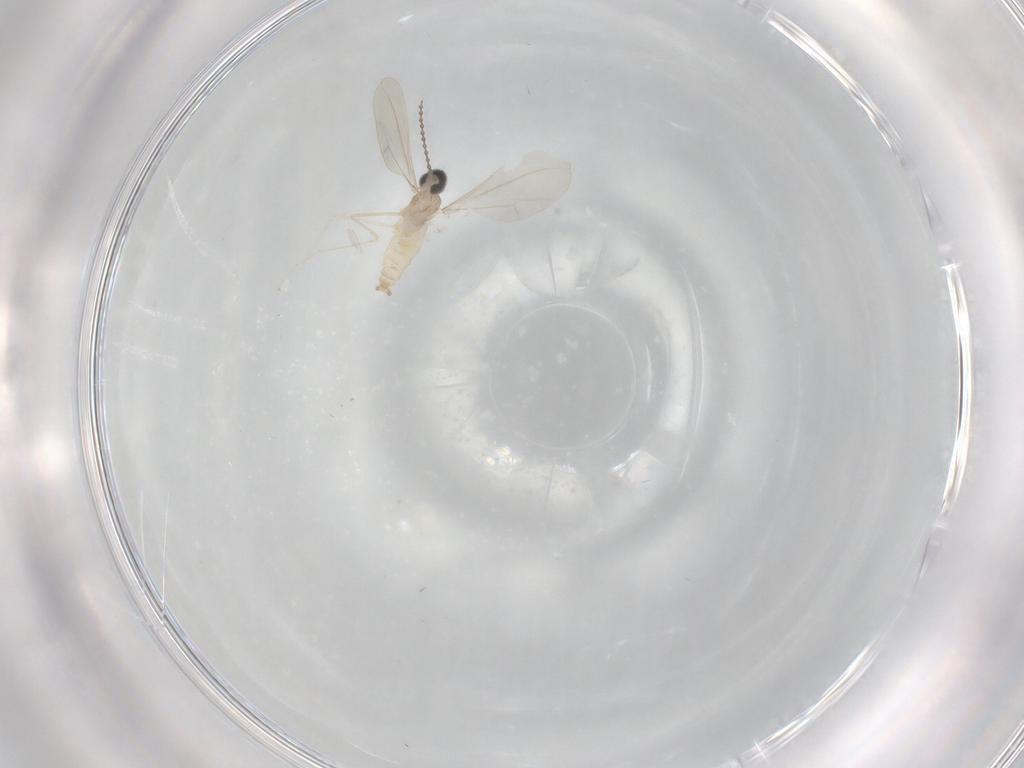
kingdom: Animalia
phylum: Arthropoda
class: Insecta
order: Diptera
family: Cecidomyiidae
